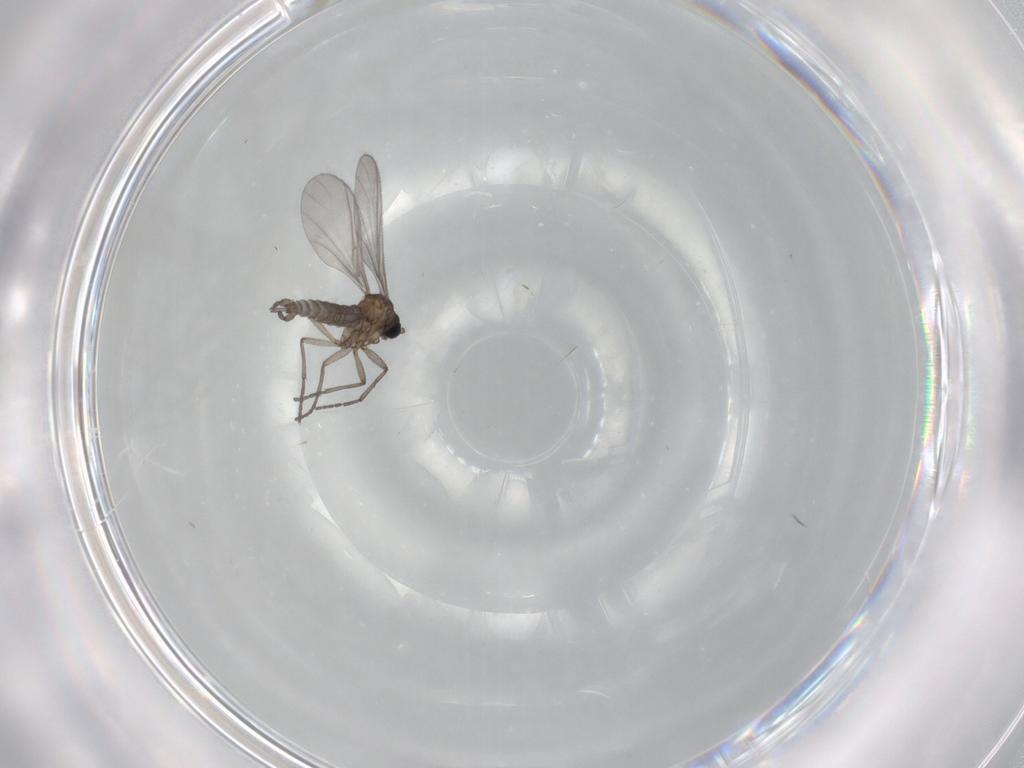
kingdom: Animalia
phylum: Arthropoda
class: Insecta
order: Diptera
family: Sciaridae
